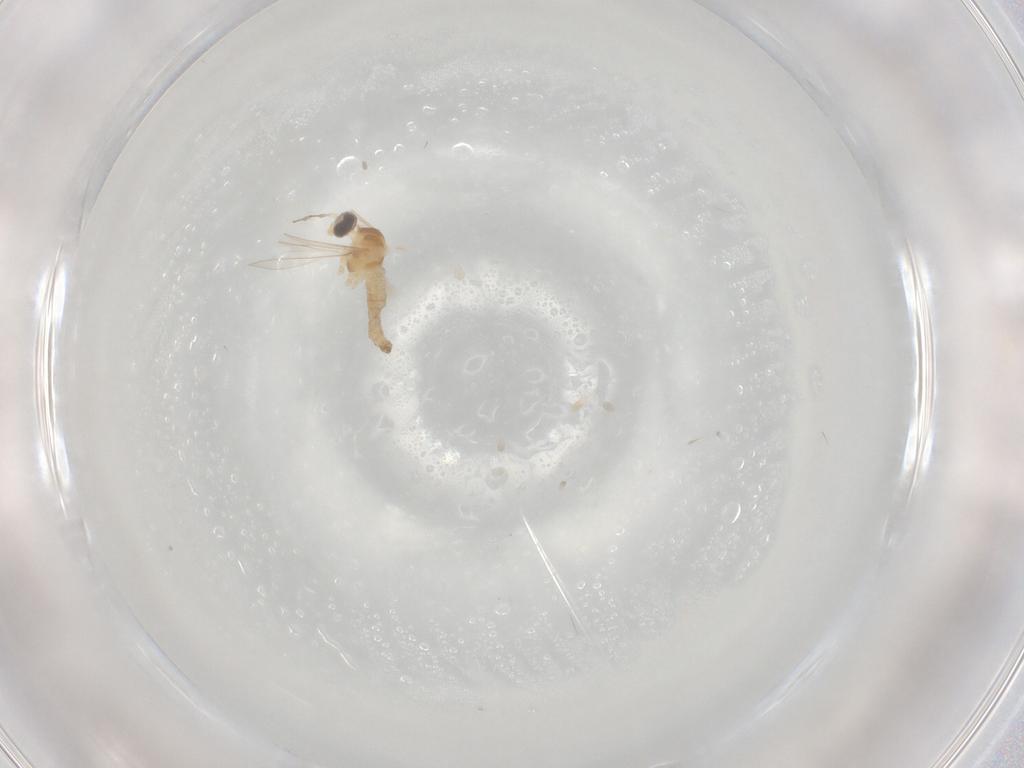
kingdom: Animalia
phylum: Arthropoda
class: Insecta
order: Diptera
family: Cecidomyiidae
